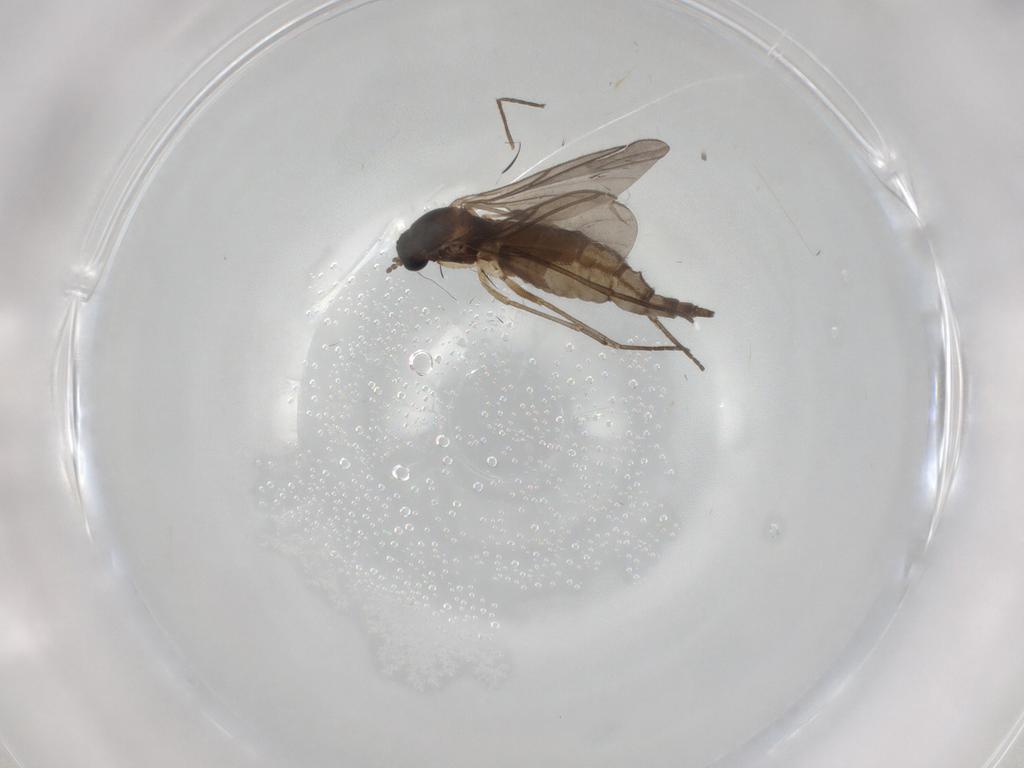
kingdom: Animalia
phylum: Arthropoda
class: Insecta
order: Diptera
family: Sciaridae
